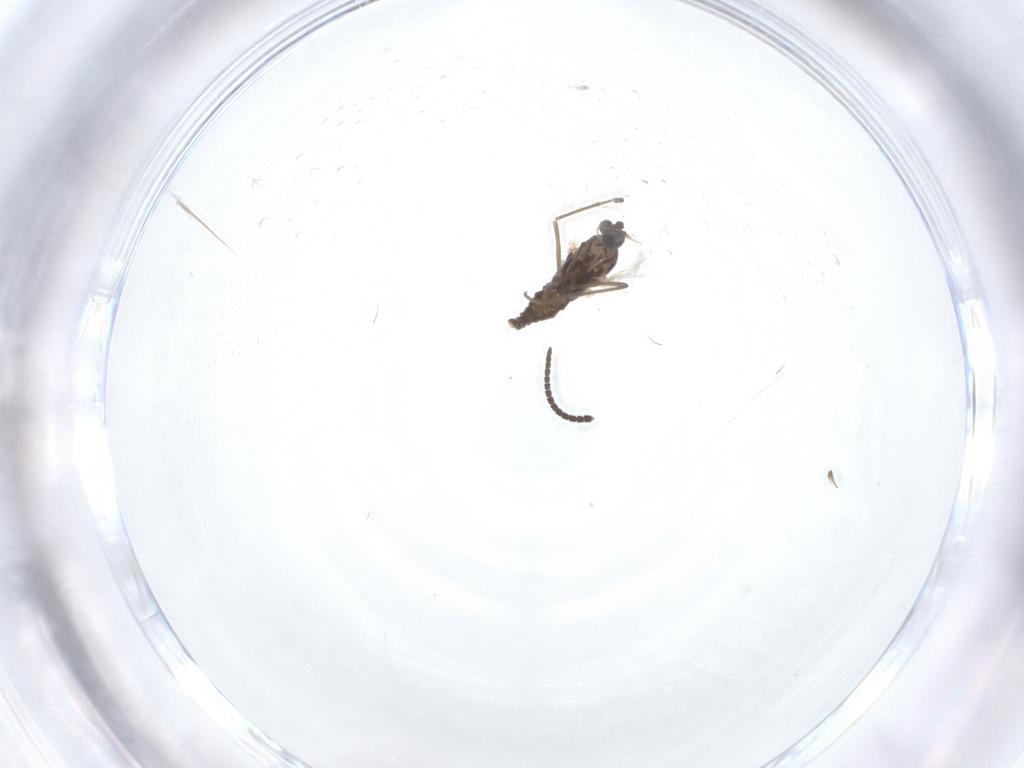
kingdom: Animalia
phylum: Arthropoda
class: Insecta
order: Diptera
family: Cecidomyiidae
